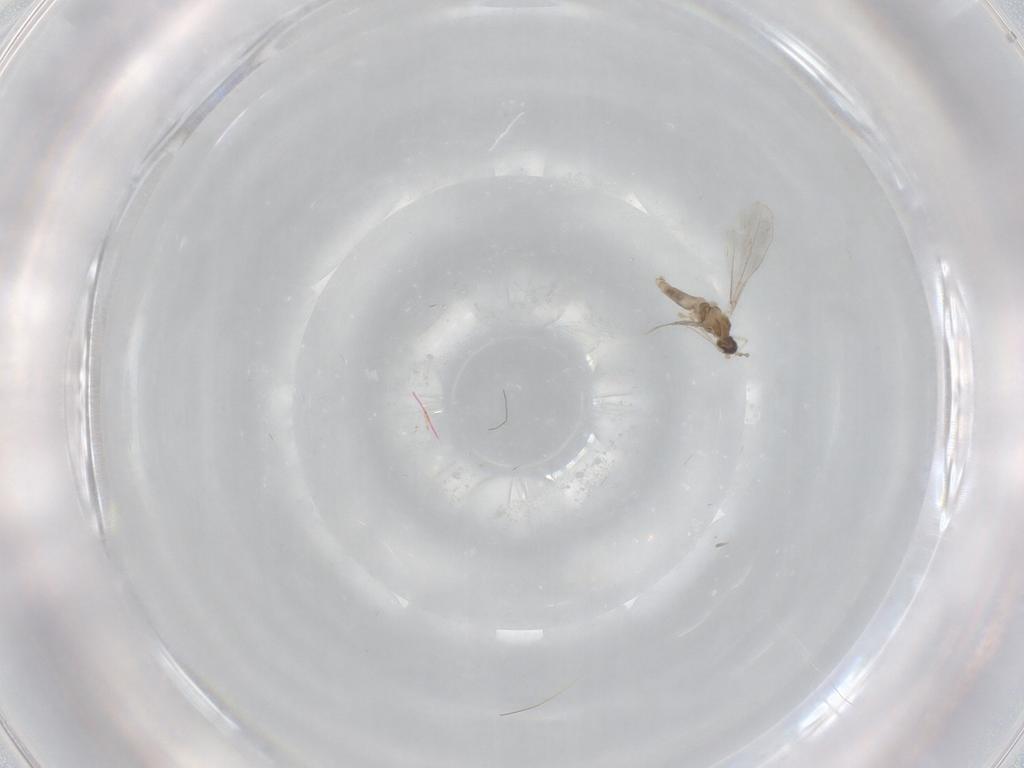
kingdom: Animalia
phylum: Arthropoda
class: Insecta
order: Diptera
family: Cecidomyiidae
